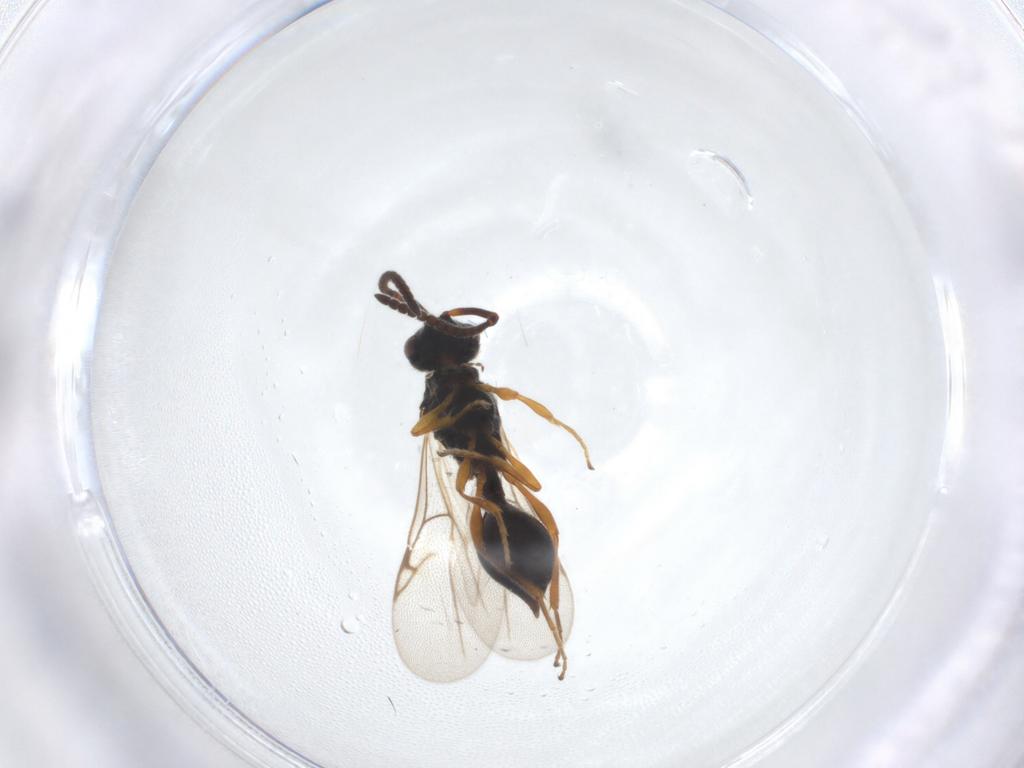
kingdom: Animalia
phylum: Arthropoda
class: Insecta
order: Hymenoptera
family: Diapriidae
